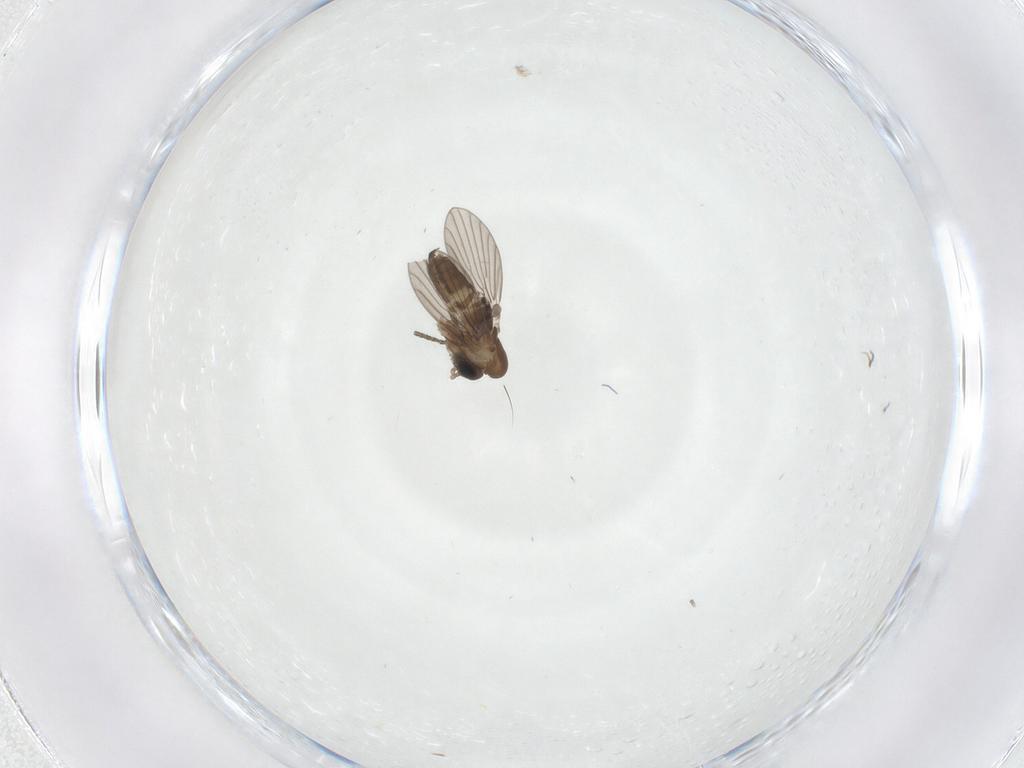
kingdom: Animalia
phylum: Arthropoda
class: Insecta
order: Diptera
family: Psychodidae
